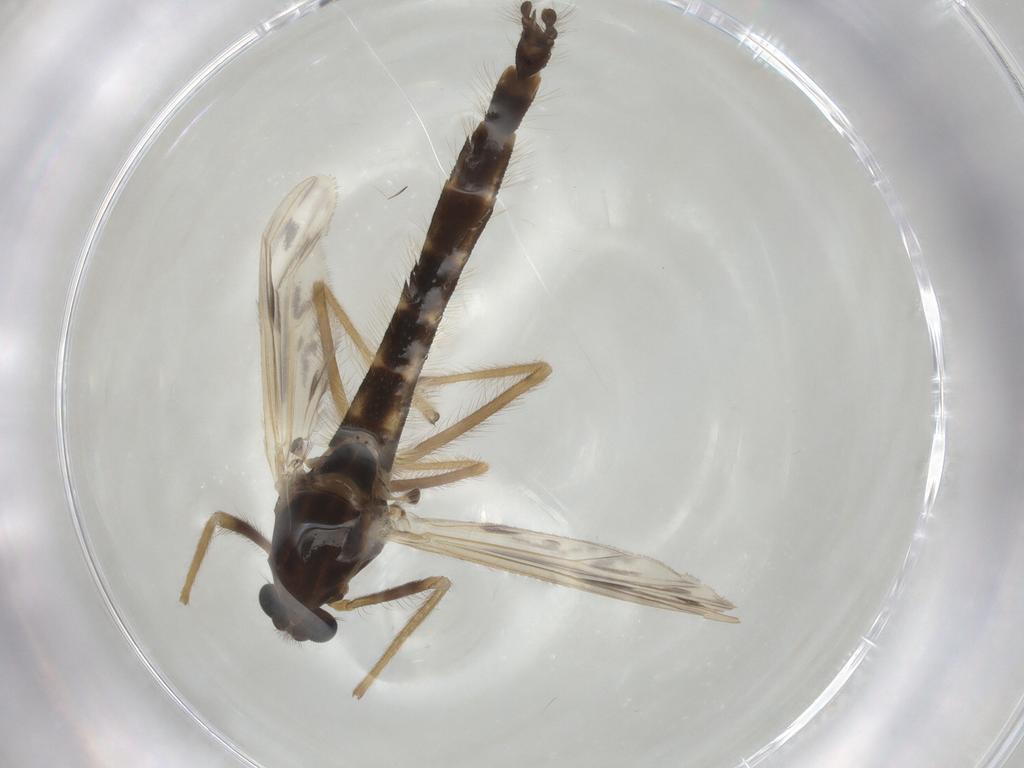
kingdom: Animalia
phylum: Arthropoda
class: Insecta
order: Diptera
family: Chironomidae
